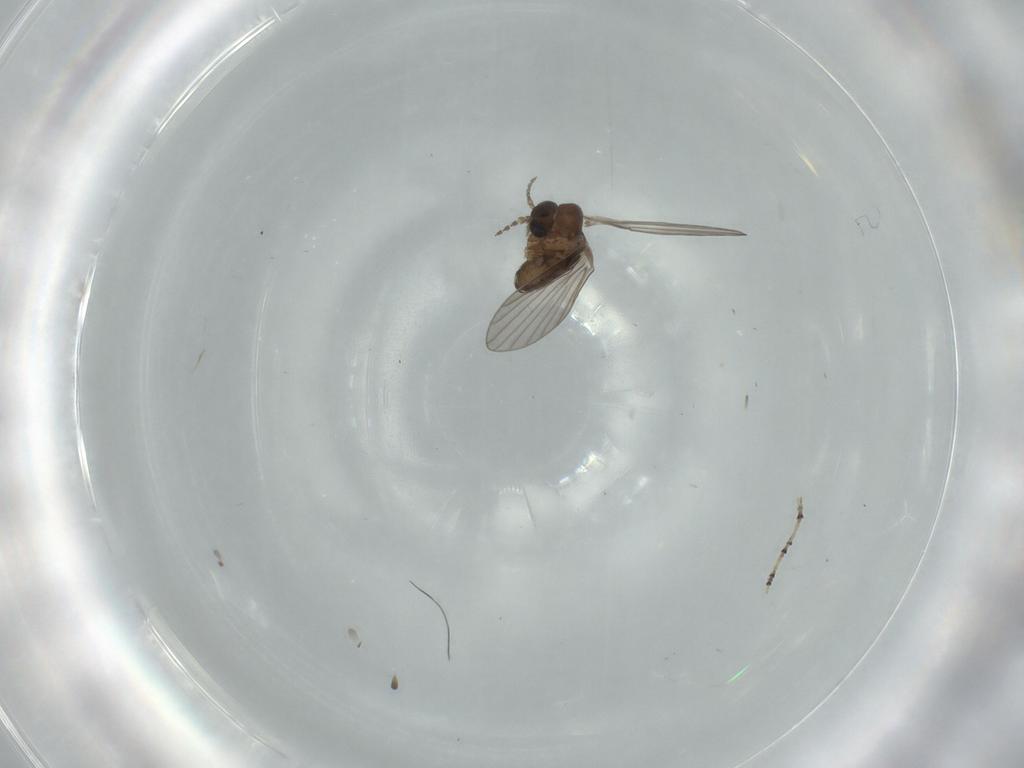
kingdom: Animalia
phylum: Arthropoda
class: Insecta
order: Diptera
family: Psychodidae
